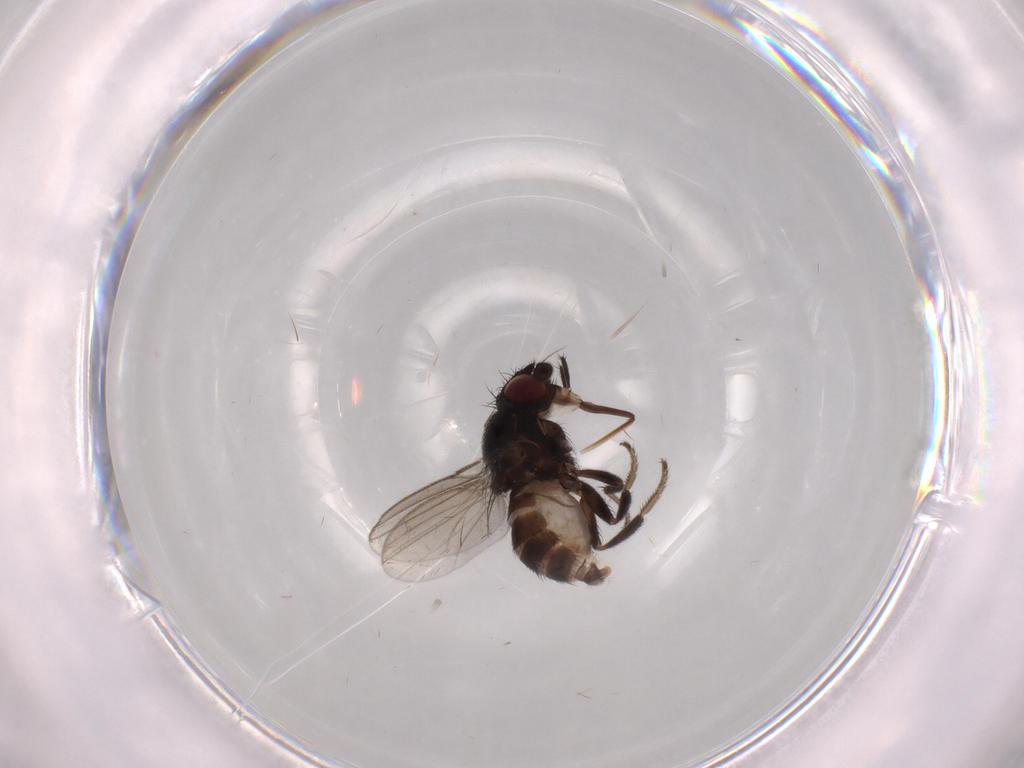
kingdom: Animalia
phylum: Arthropoda
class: Insecta
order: Diptera
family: Milichiidae
